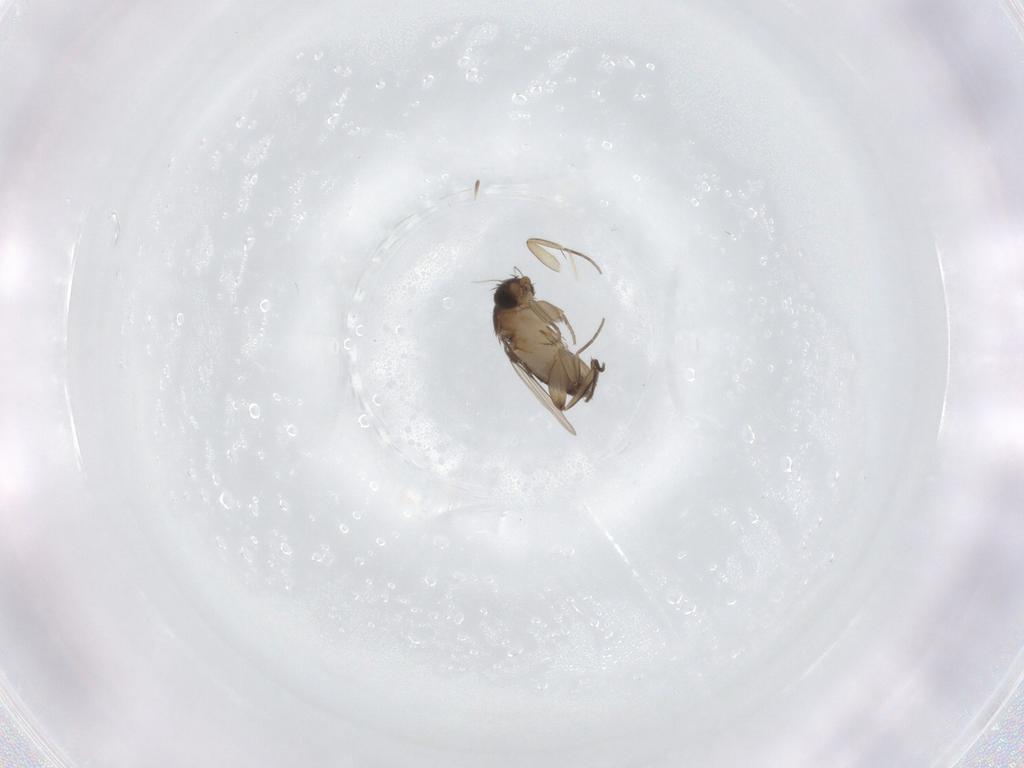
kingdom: Animalia
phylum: Arthropoda
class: Insecta
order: Diptera
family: Phoridae
